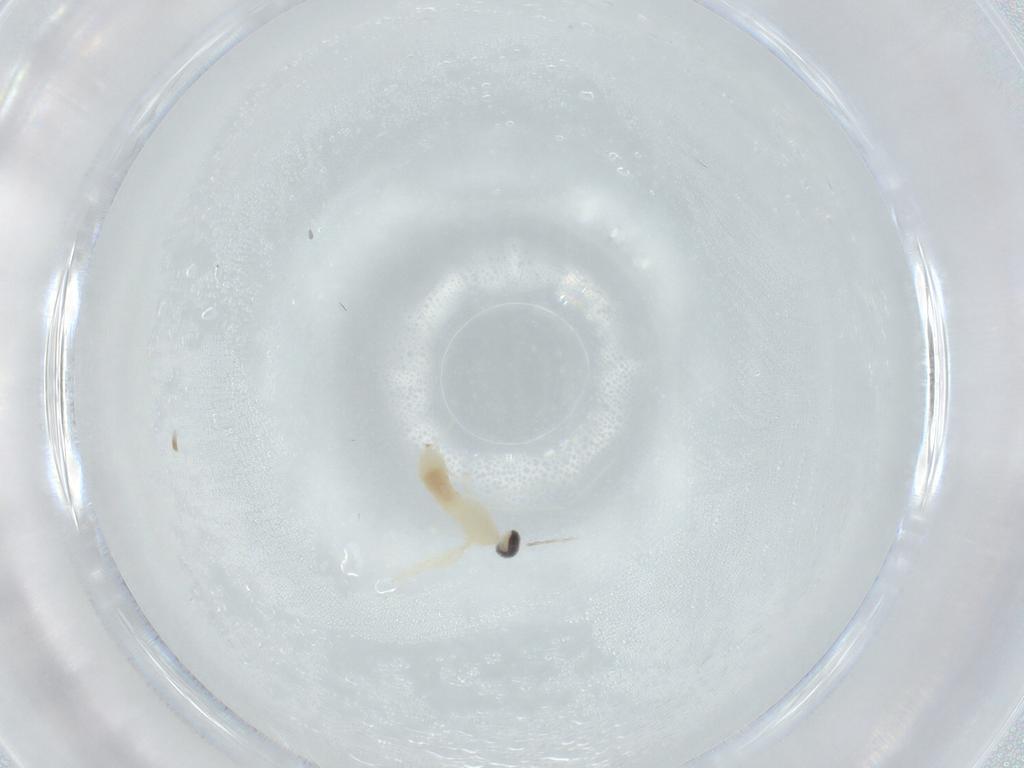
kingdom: Animalia
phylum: Arthropoda
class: Insecta
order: Diptera
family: Cecidomyiidae
